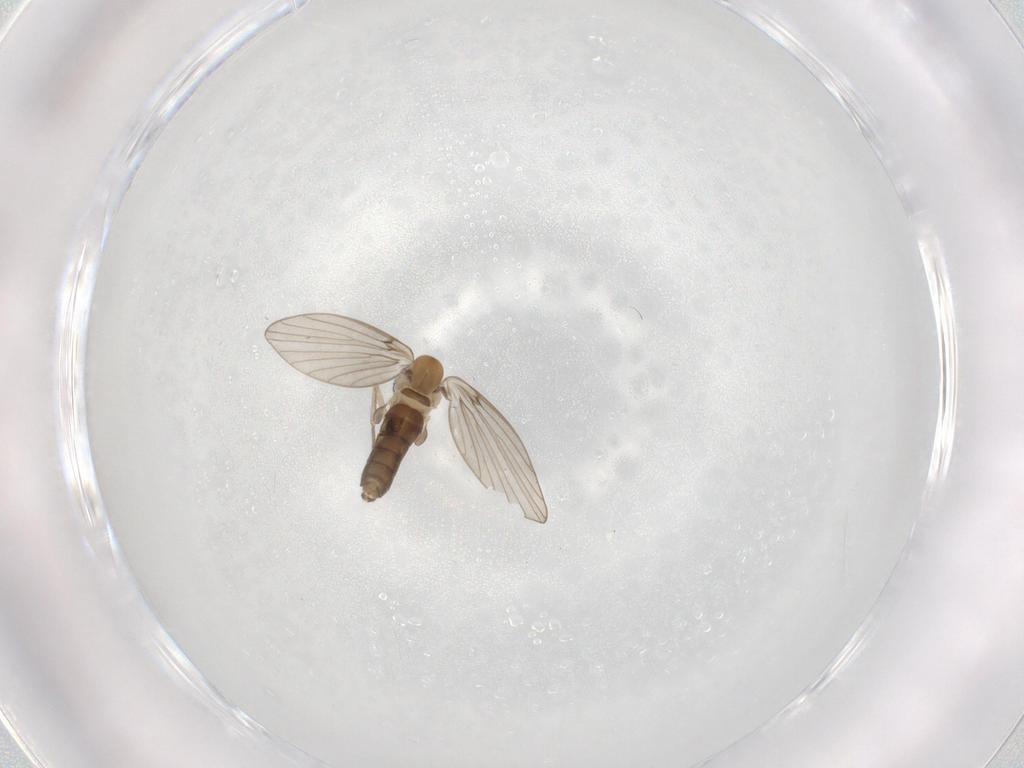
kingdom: Animalia
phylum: Arthropoda
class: Insecta
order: Diptera
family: Psychodidae
